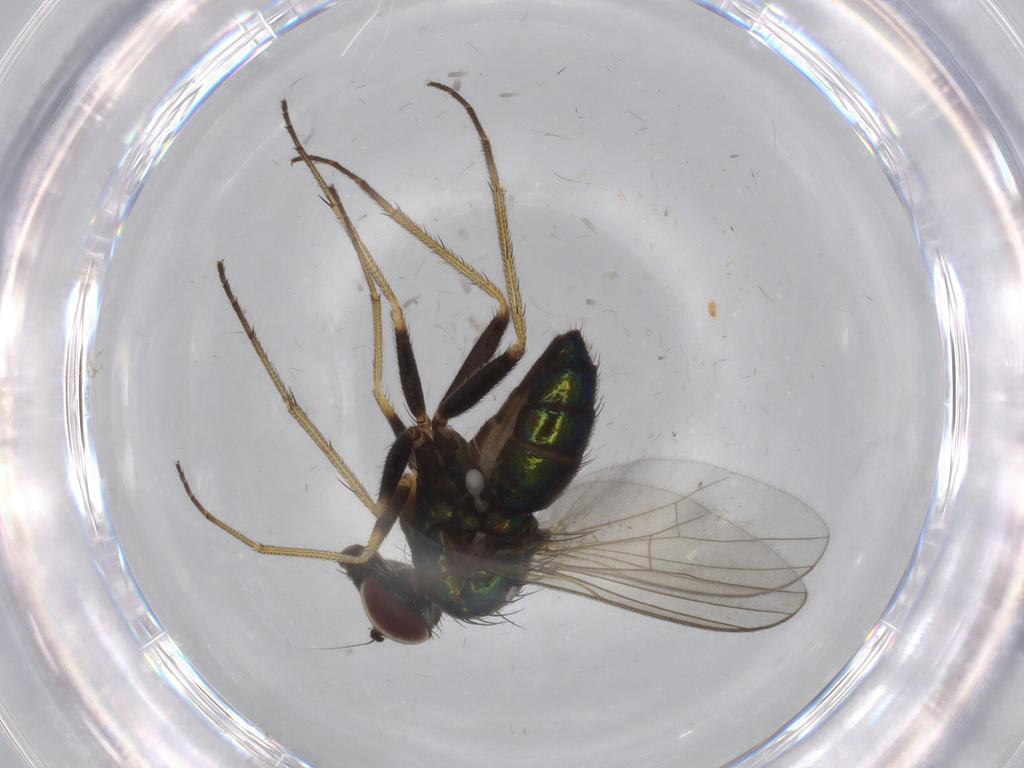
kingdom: Animalia
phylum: Arthropoda
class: Insecta
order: Diptera
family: Dolichopodidae
